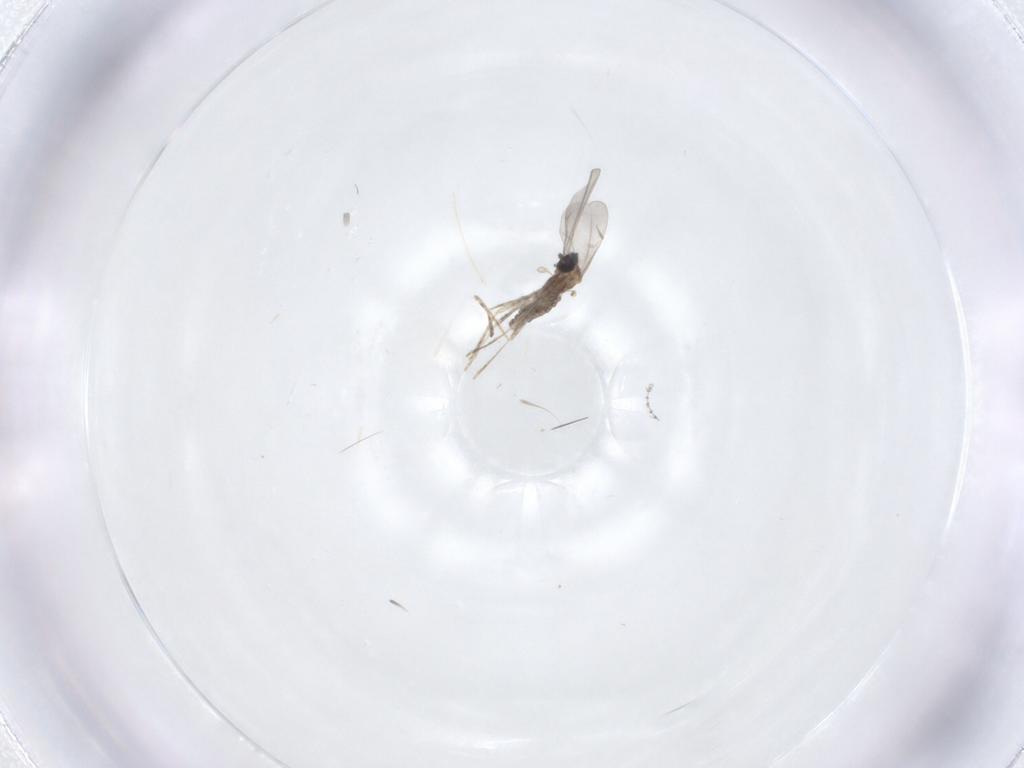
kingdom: Animalia
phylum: Arthropoda
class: Insecta
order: Diptera
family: Cecidomyiidae
